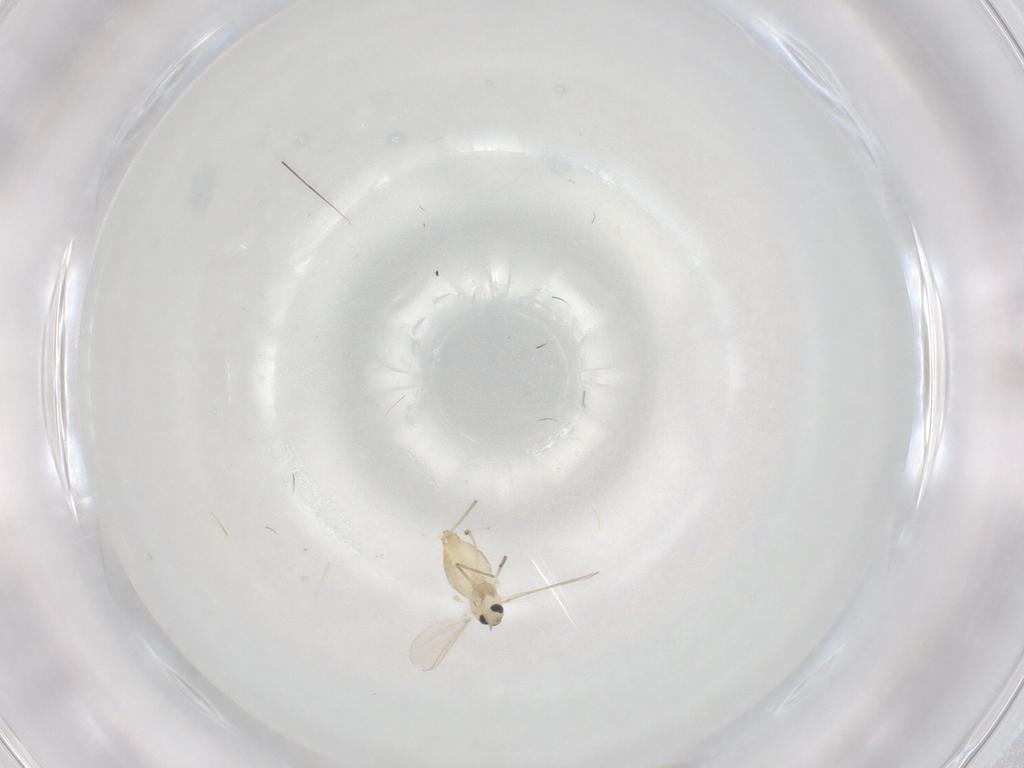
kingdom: Animalia
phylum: Arthropoda
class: Insecta
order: Diptera
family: Chironomidae
